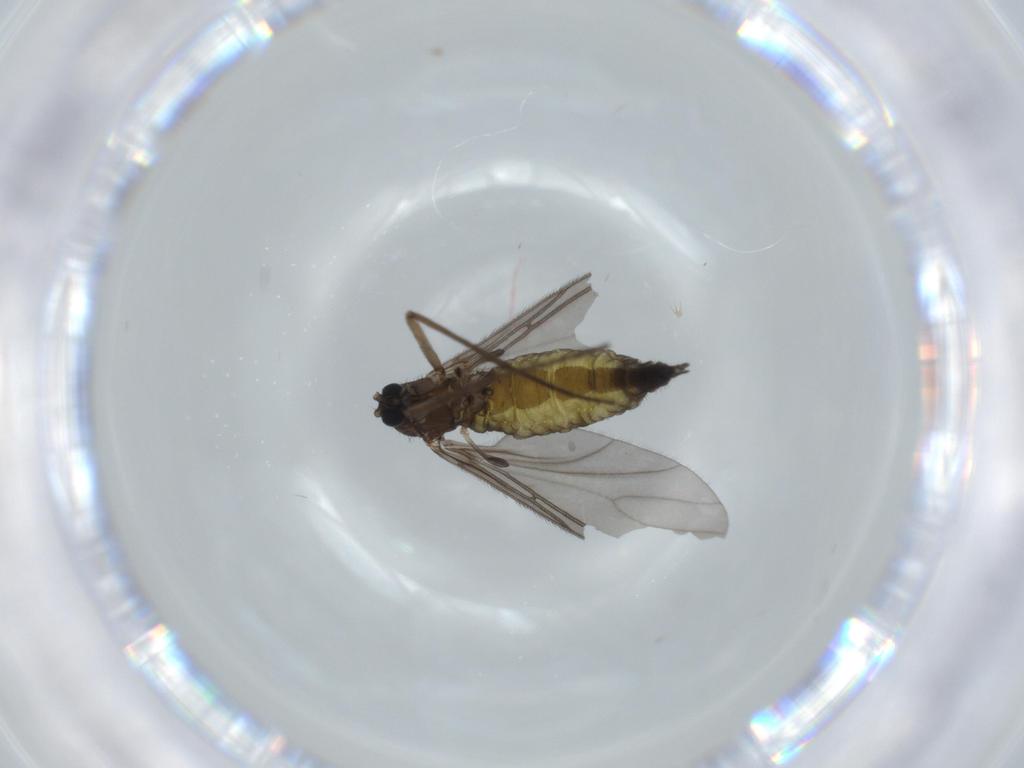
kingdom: Animalia
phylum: Arthropoda
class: Insecta
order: Diptera
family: Sciaridae
